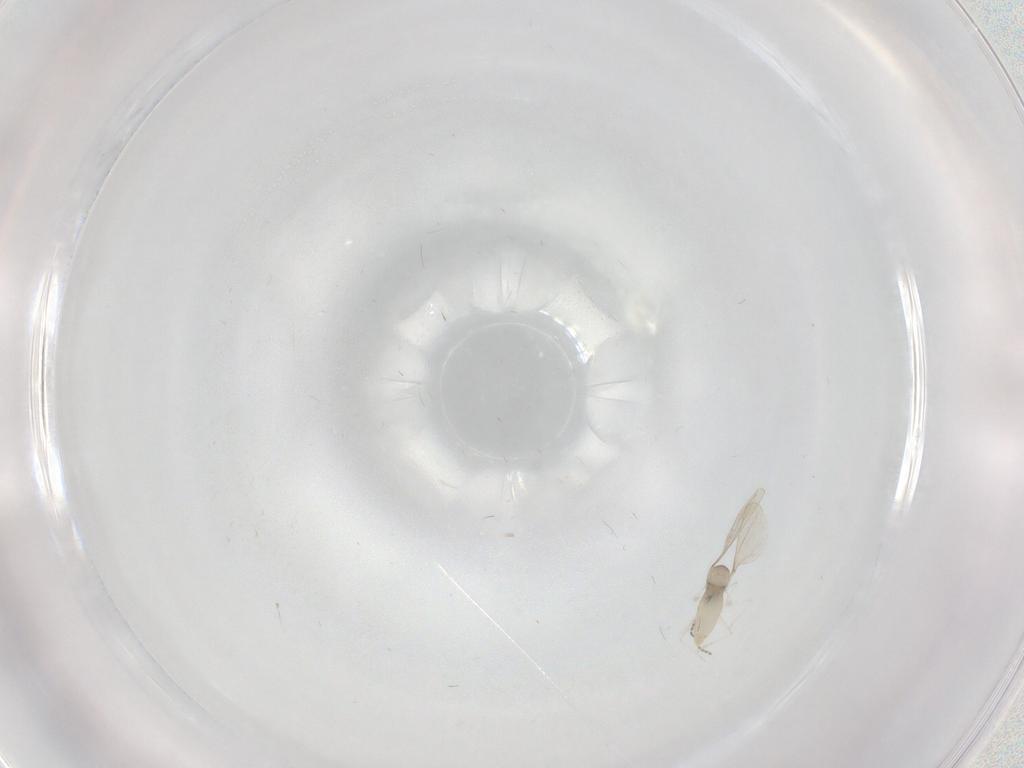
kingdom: Animalia
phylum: Arthropoda
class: Insecta
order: Diptera
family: Cecidomyiidae
